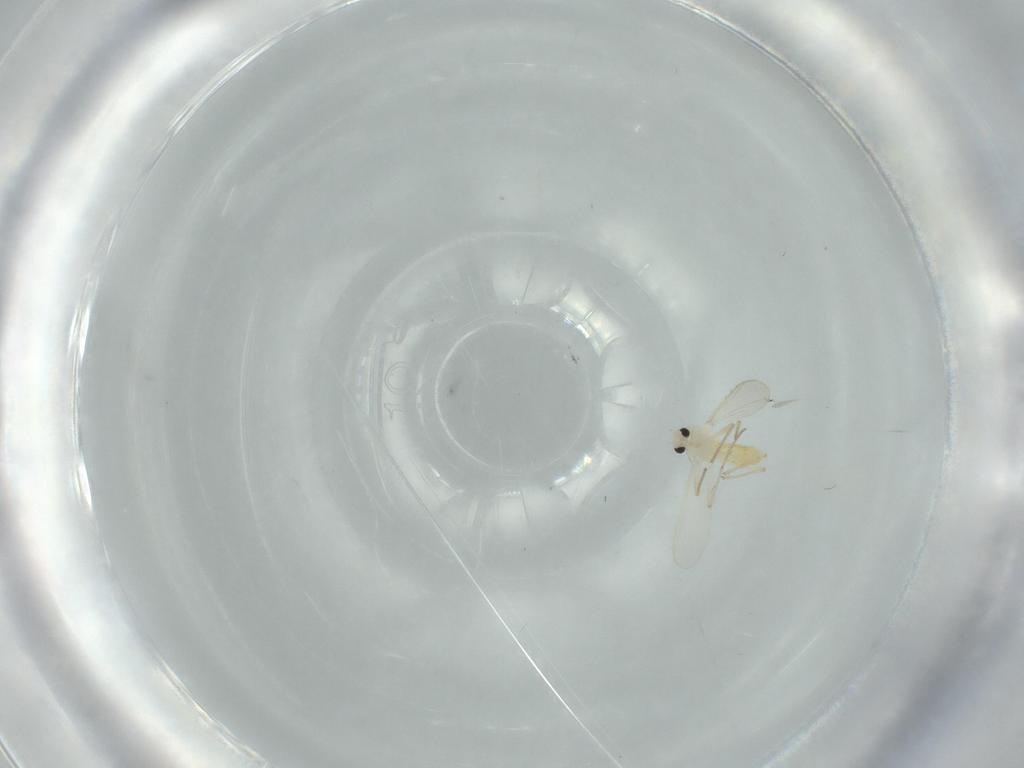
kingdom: Animalia
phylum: Arthropoda
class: Insecta
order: Diptera
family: Chironomidae
